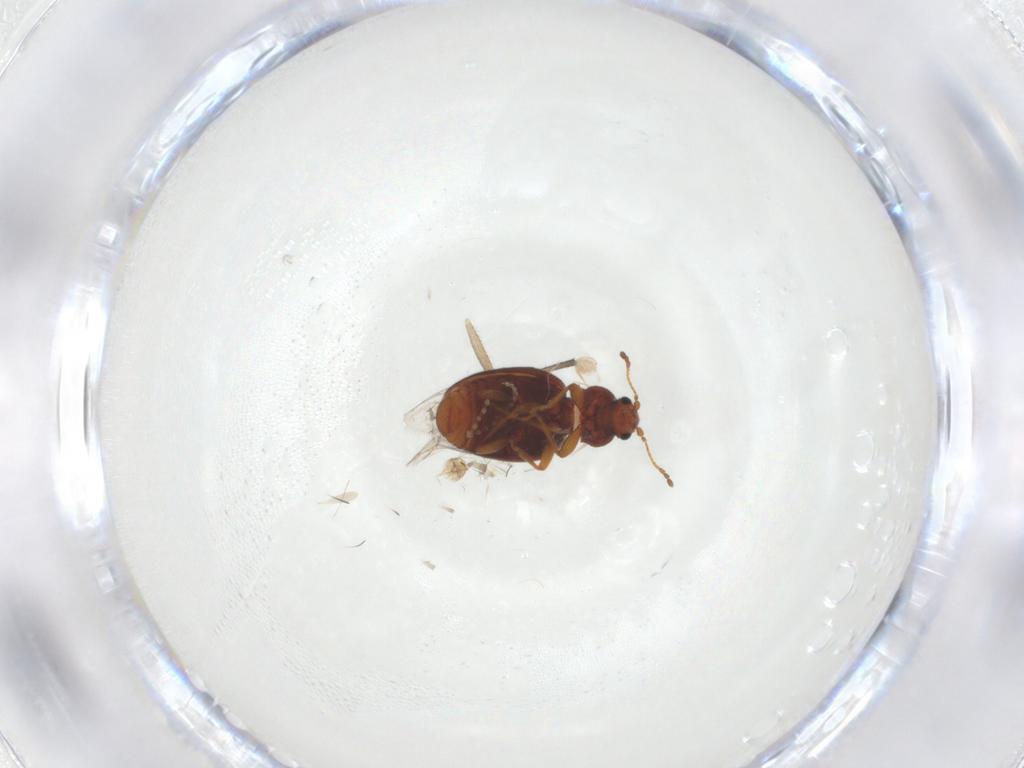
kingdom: Animalia
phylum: Arthropoda
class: Insecta
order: Coleoptera
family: Latridiidae
